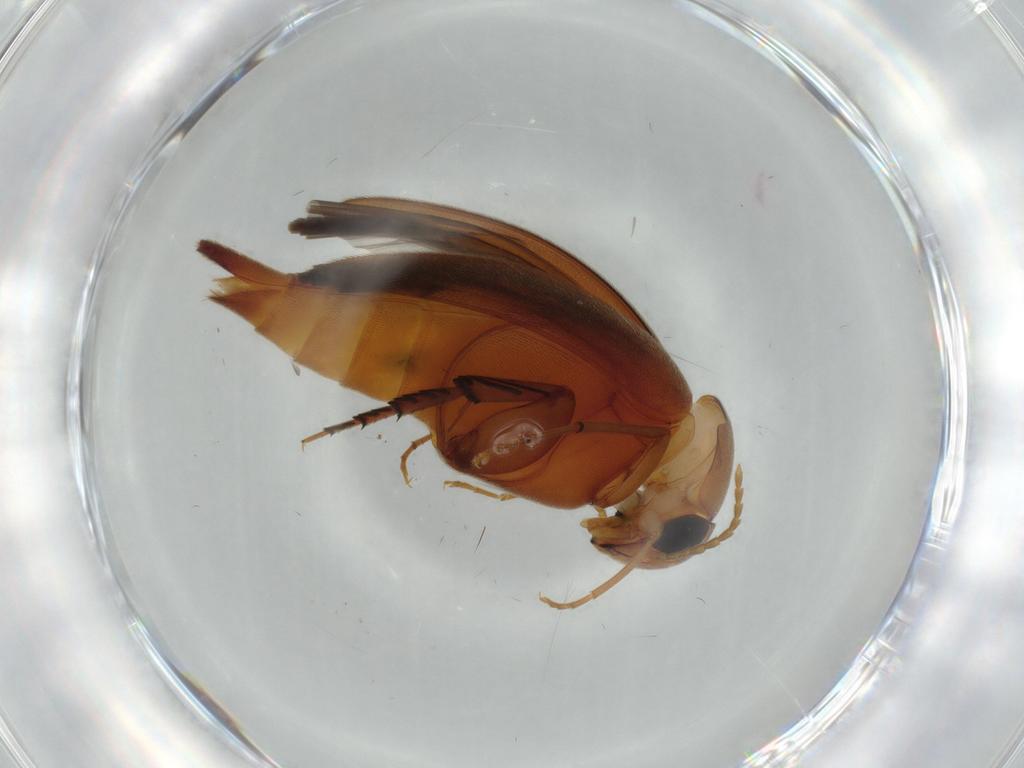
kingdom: Animalia
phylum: Arthropoda
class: Insecta
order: Coleoptera
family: Mordellidae
